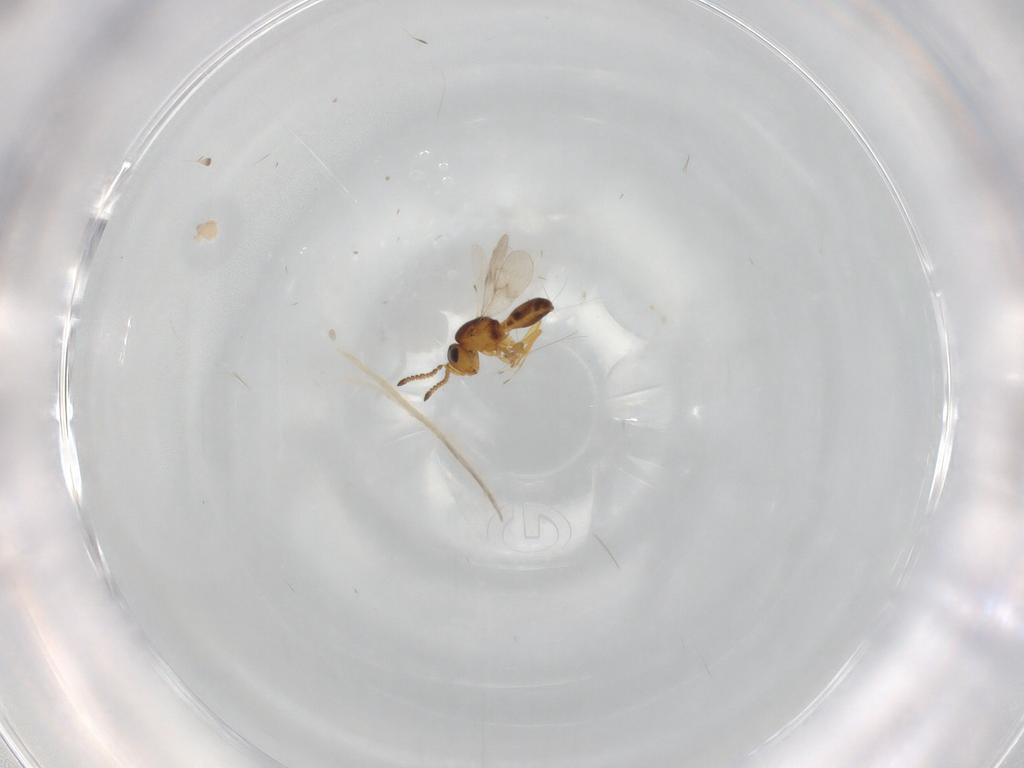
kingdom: Animalia
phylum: Arthropoda
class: Insecta
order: Hymenoptera
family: Scelionidae
